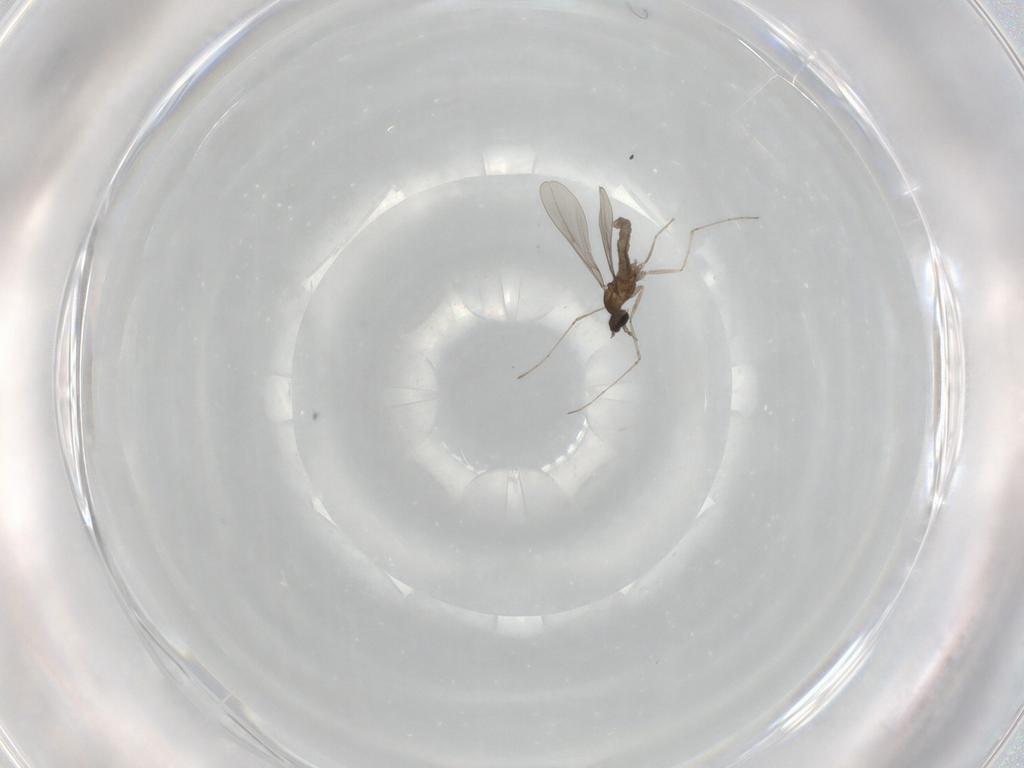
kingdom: Animalia
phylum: Arthropoda
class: Insecta
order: Diptera
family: Cecidomyiidae
